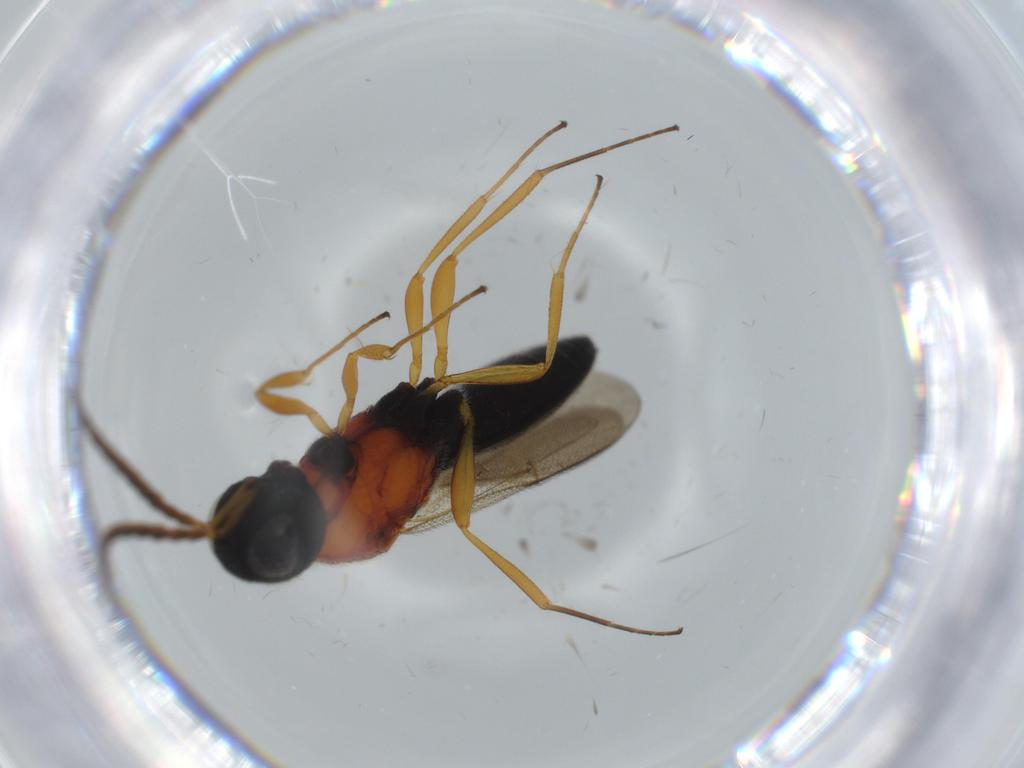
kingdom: Animalia
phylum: Arthropoda
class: Insecta
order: Hymenoptera
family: Scelionidae
